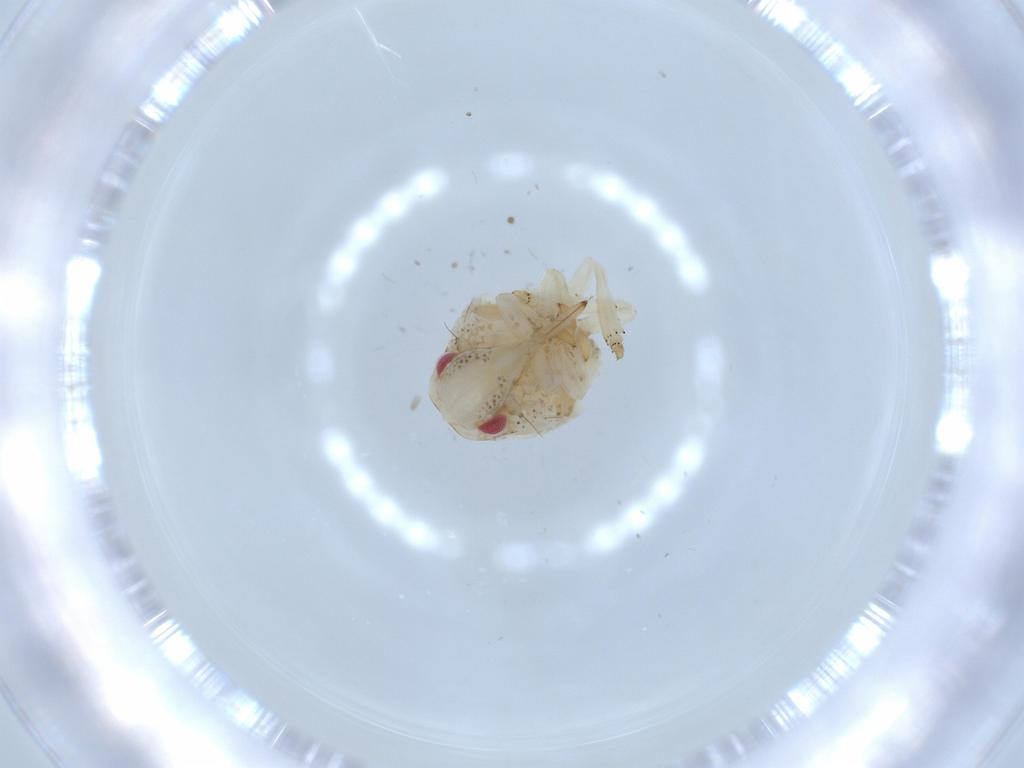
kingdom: Animalia
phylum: Arthropoda
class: Insecta
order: Hemiptera
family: Acanaloniidae
